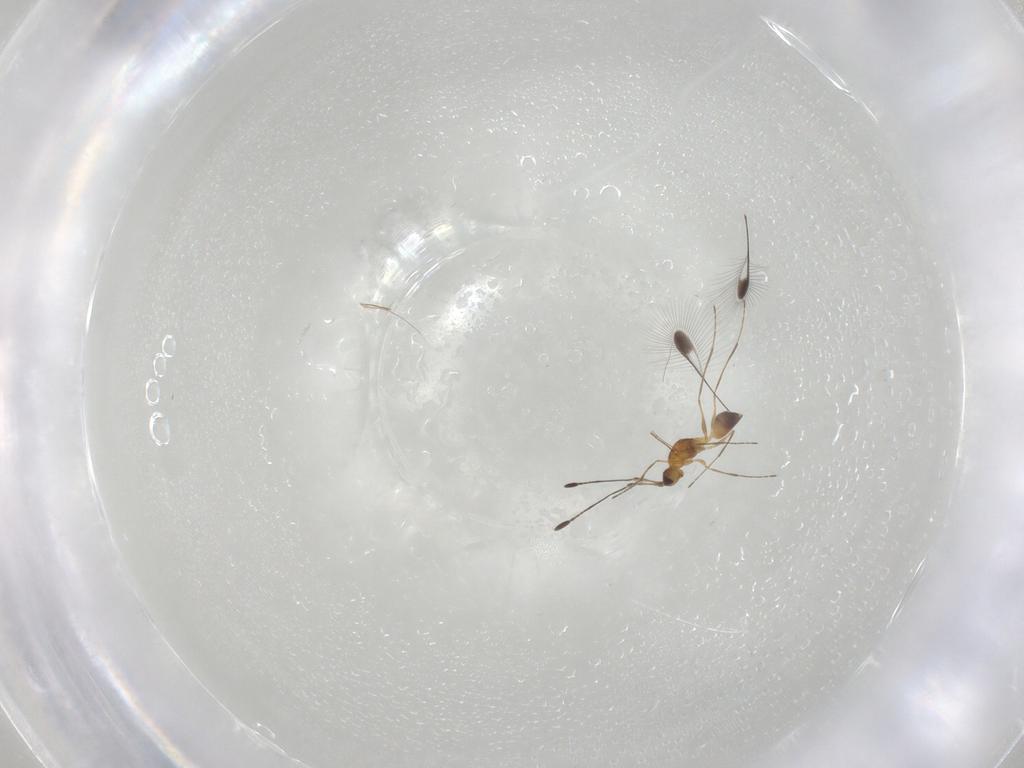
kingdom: Animalia
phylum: Arthropoda
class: Insecta
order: Hymenoptera
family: Mymaridae
